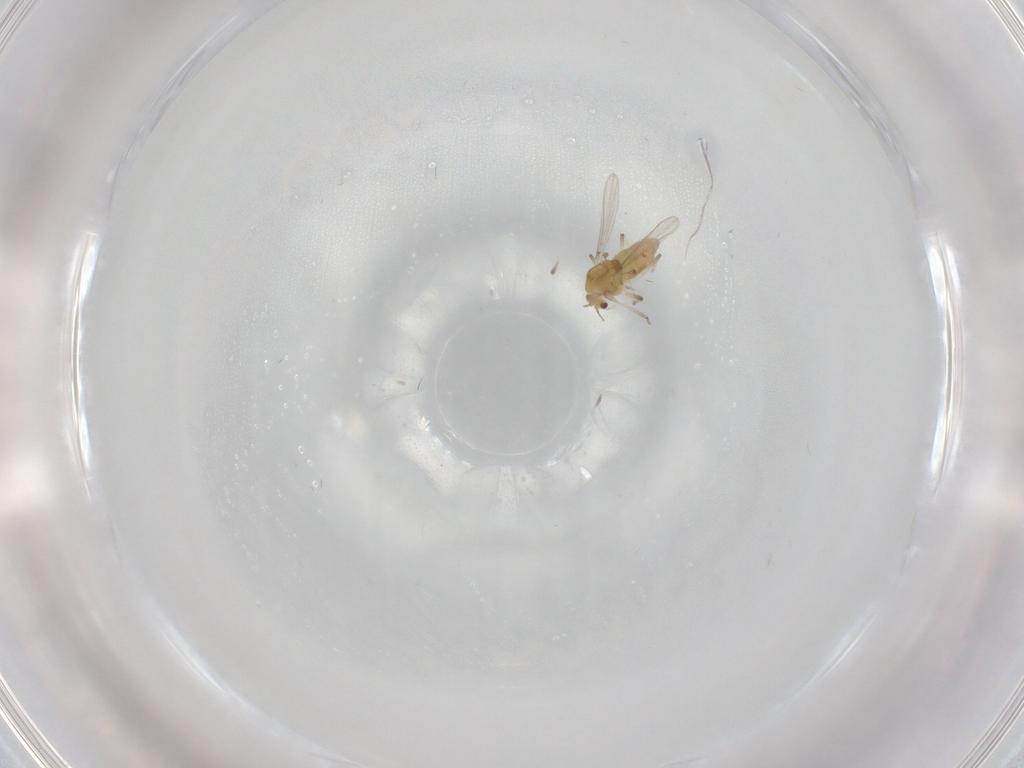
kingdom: Animalia
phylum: Arthropoda
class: Insecta
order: Diptera
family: Chironomidae
